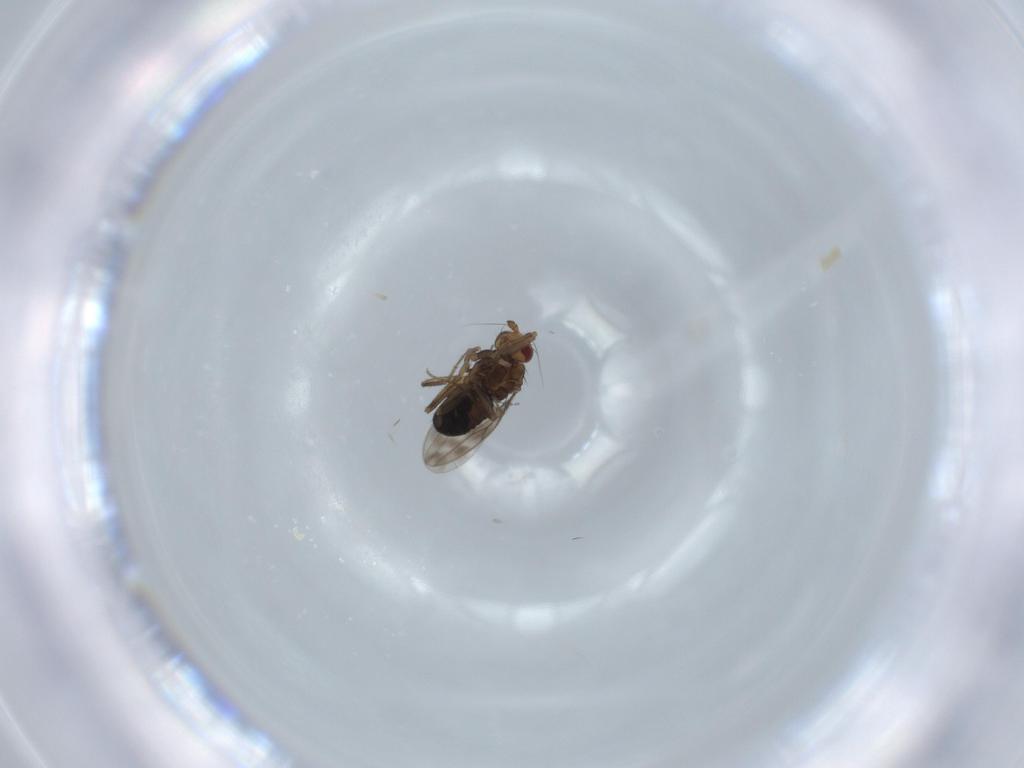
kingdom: Animalia
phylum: Arthropoda
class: Insecta
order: Diptera
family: Sphaeroceridae
